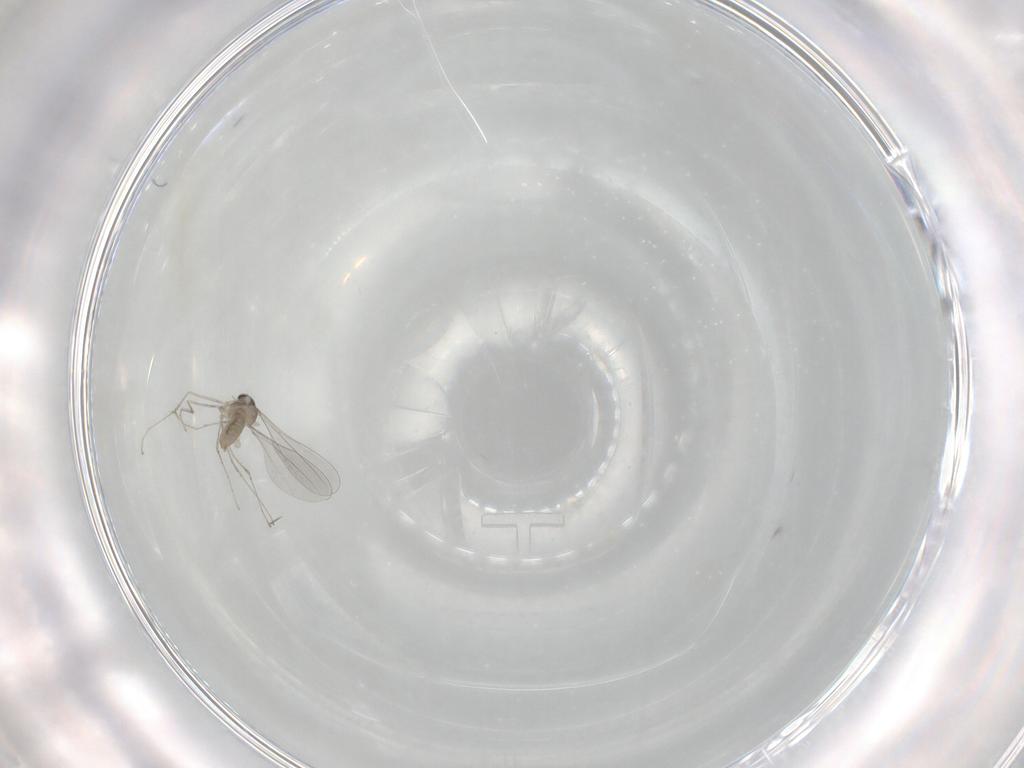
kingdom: Animalia
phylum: Arthropoda
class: Insecta
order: Diptera
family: Cecidomyiidae
